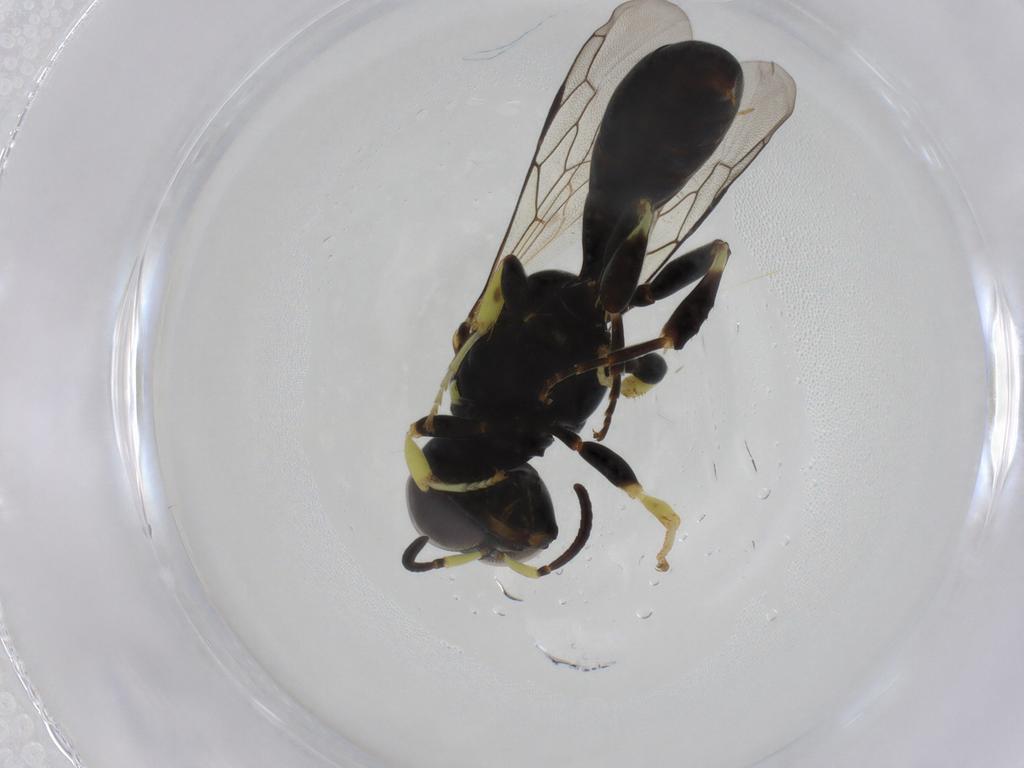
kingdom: Animalia
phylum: Arthropoda
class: Insecta
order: Hymenoptera
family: Crabronidae
